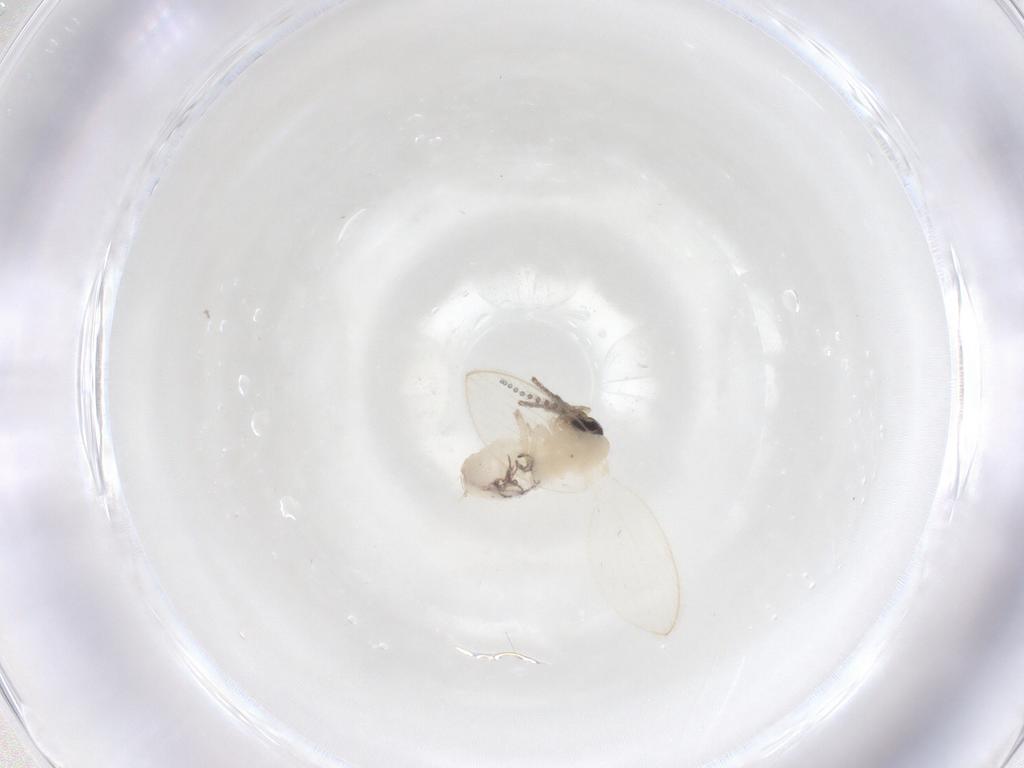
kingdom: Animalia
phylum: Arthropoda
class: Insecta
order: Diptera
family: Psychodidae
